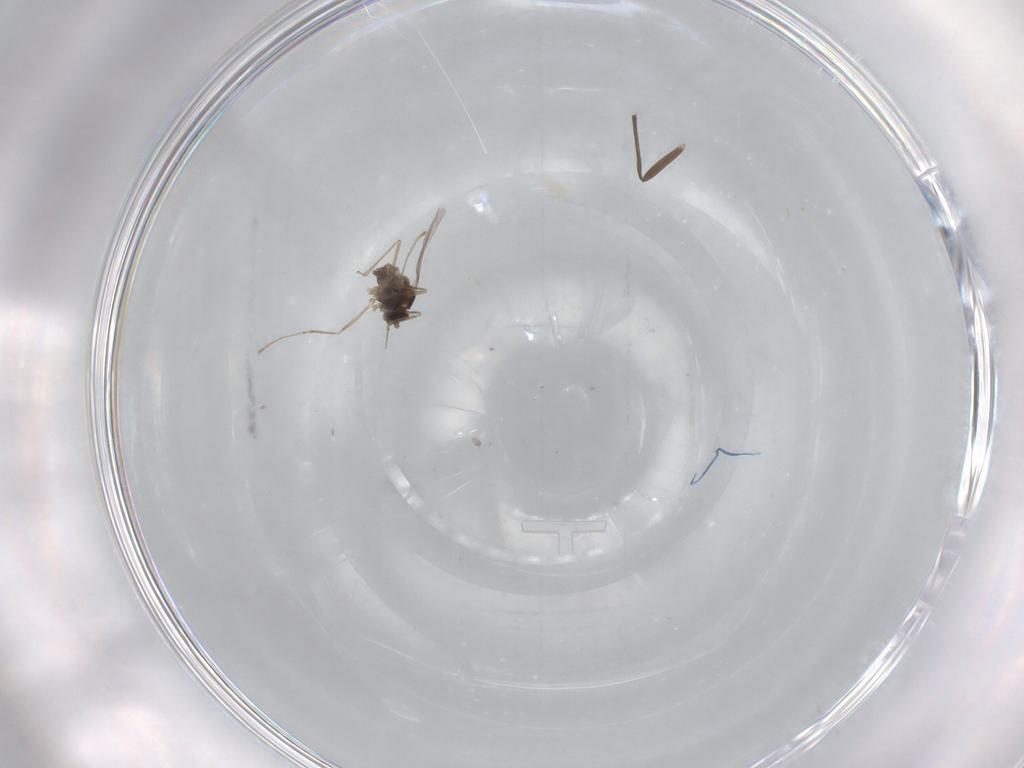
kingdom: Animalia
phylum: Arthropoda
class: Insecta
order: Diptera
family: Cecidomyiidae
